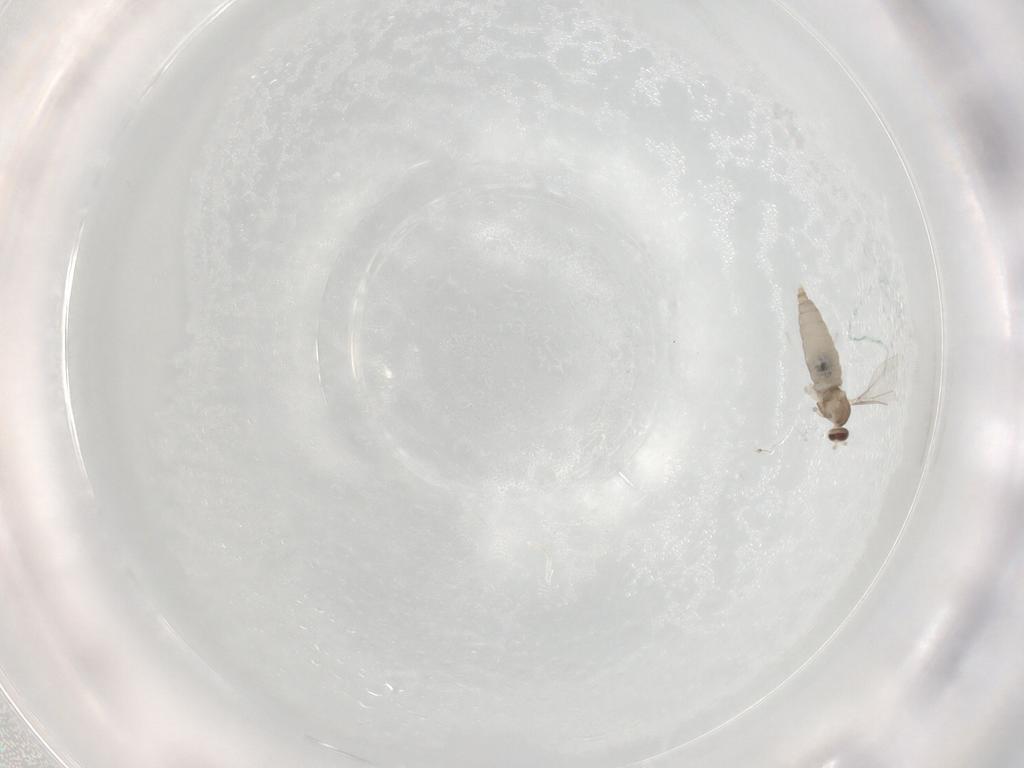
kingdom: Animalia
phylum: Arthropoda
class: Insecta
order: Diptera
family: Cecidomyiidae
